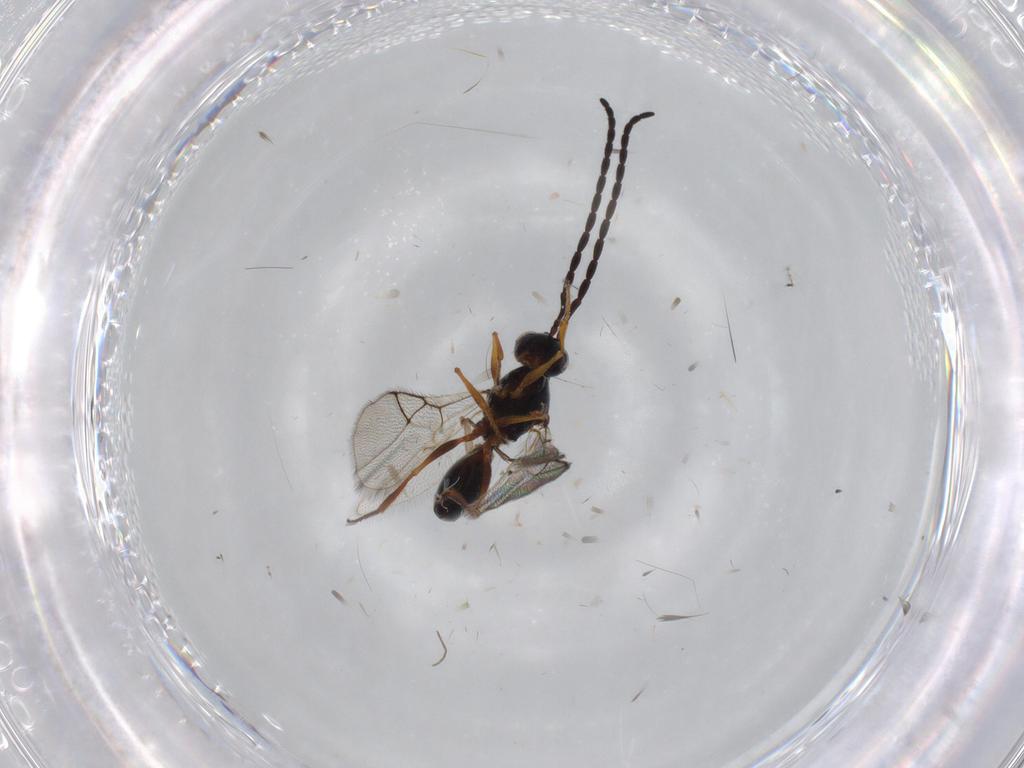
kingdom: Animalia
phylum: Arthropoda
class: Insecta
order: Hymenoptera
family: Figitidae
